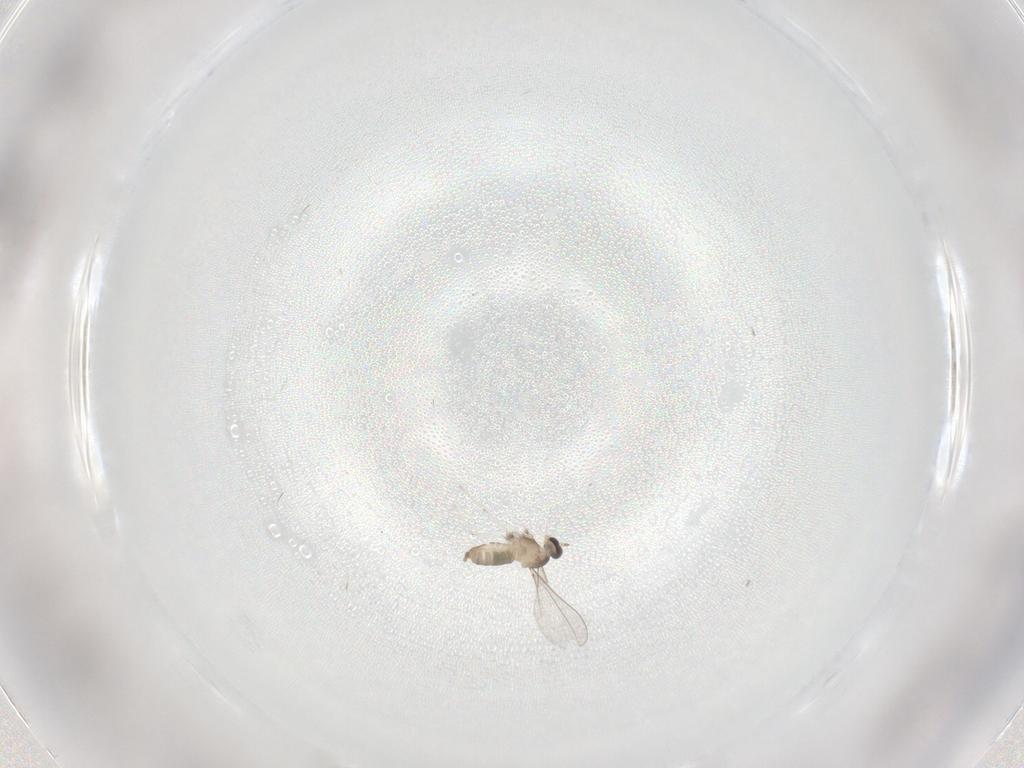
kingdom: Animalia
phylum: Arthropoda
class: Insecta
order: Diptera
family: Cecidomyiidae
